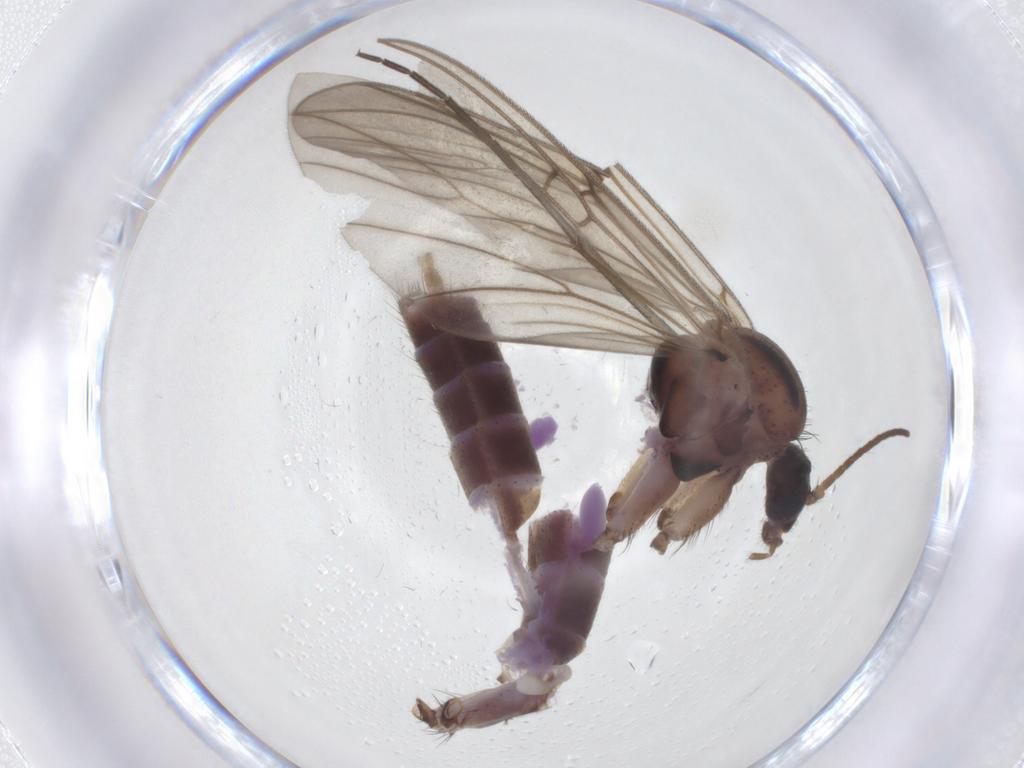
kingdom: Animalia
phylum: Arthropoda
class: Insecta
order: Diptera
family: Mycetophilidae
